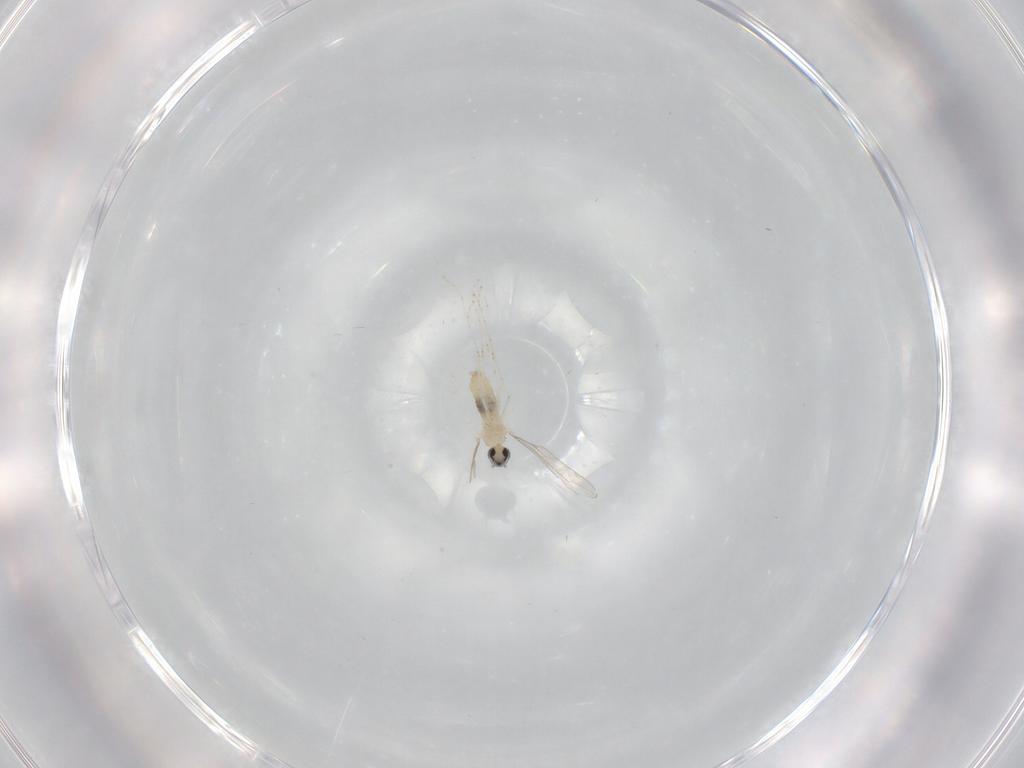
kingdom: Animalia
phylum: Arthropoda
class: Insecta
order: Diptera
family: Cecidomyiidae
